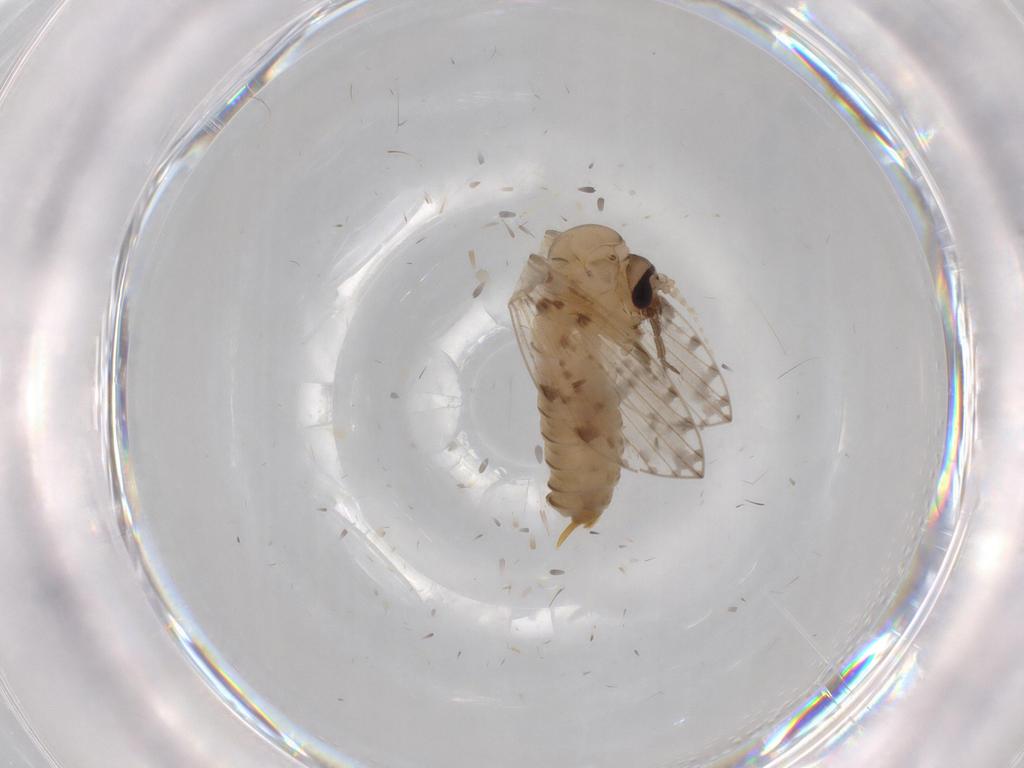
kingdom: Animalia
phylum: Arthropoda
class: Insecta
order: Diptera
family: Psychodidae
